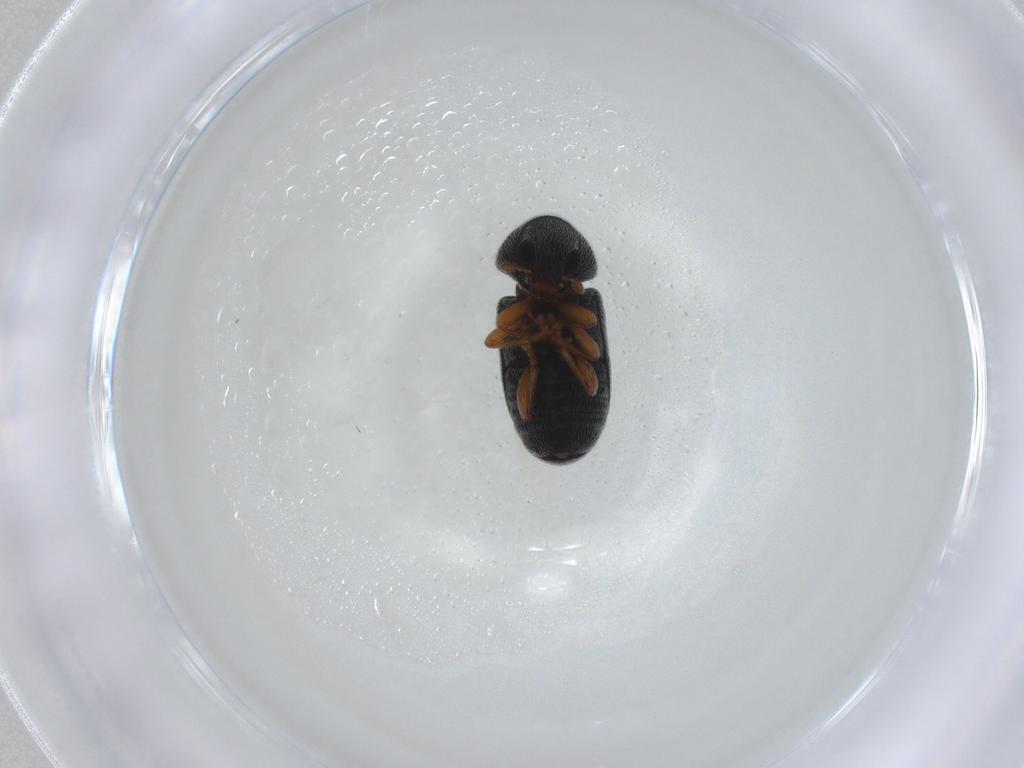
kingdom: Animalia
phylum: Arthropoda
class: Insecta
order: Coleoptera
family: Anthribidae
